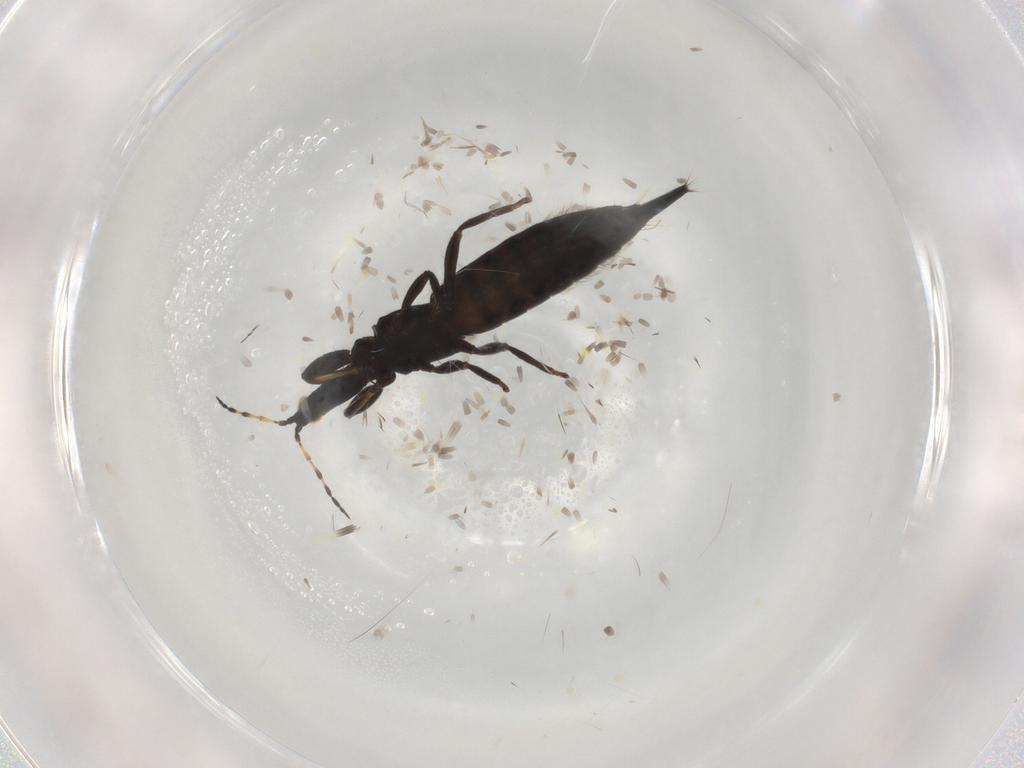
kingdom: Animalia
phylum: Arthropoda
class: Insecta
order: Thysanoptera
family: Phlaeothripidae
